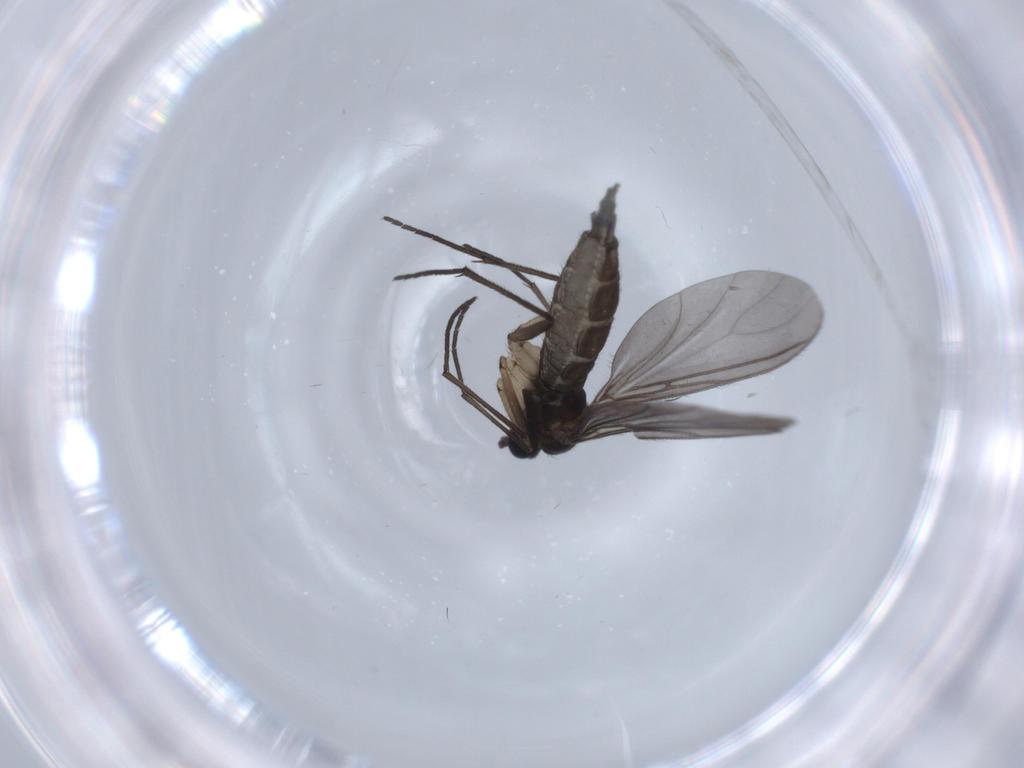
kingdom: Animalia
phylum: Arthropoda
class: Insecta
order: Diptera
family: Sciaridae
